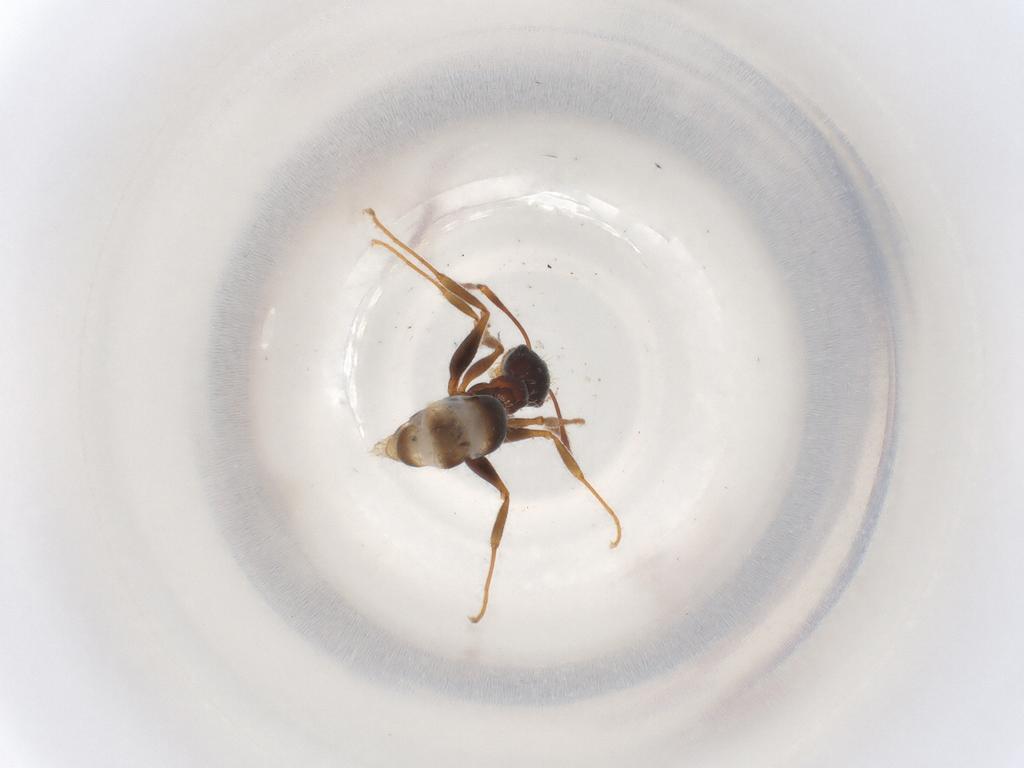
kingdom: Animalia
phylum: Arthropoda
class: Insecta
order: Hymenoptera
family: Formicidae
